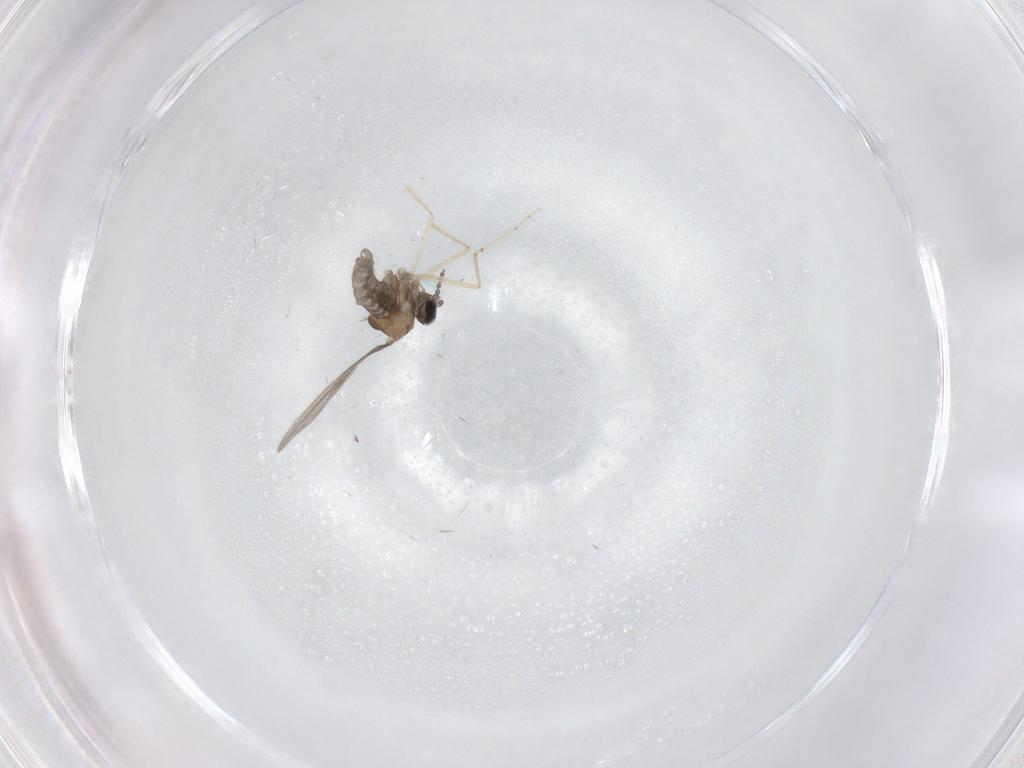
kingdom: Animalia
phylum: Arthropoda
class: Insecta
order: Diptera
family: Cecidomyiidae
